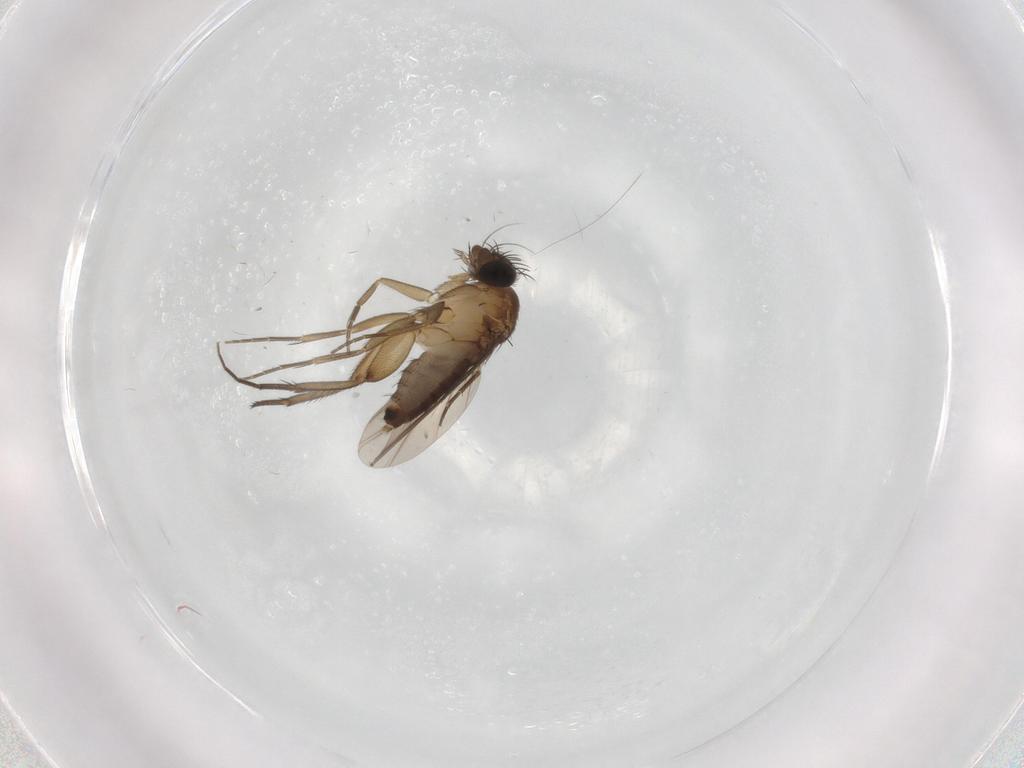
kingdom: Animalia
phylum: Arthropoda
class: Insecta
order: Diptera
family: Phoridae
